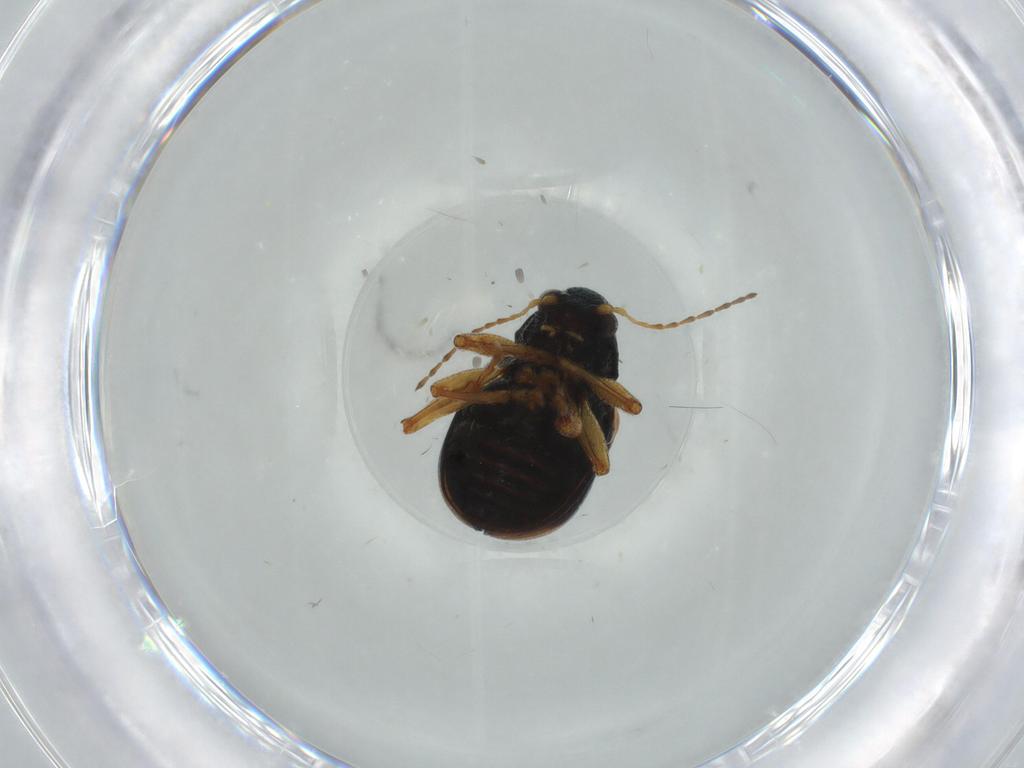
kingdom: Animalia
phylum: Arthropoda
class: Insecta
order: Coleoptera
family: Chrysomelidae
